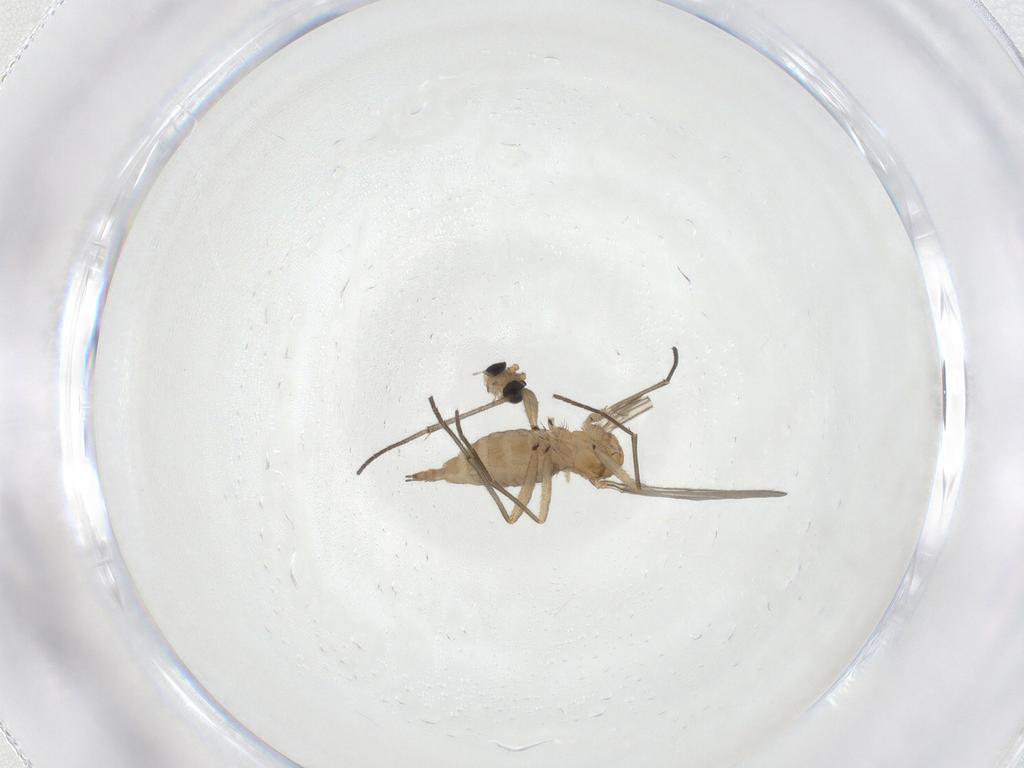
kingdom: Animalia
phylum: Arthropoda
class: Insecta
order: Diptera
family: Sciaridae
